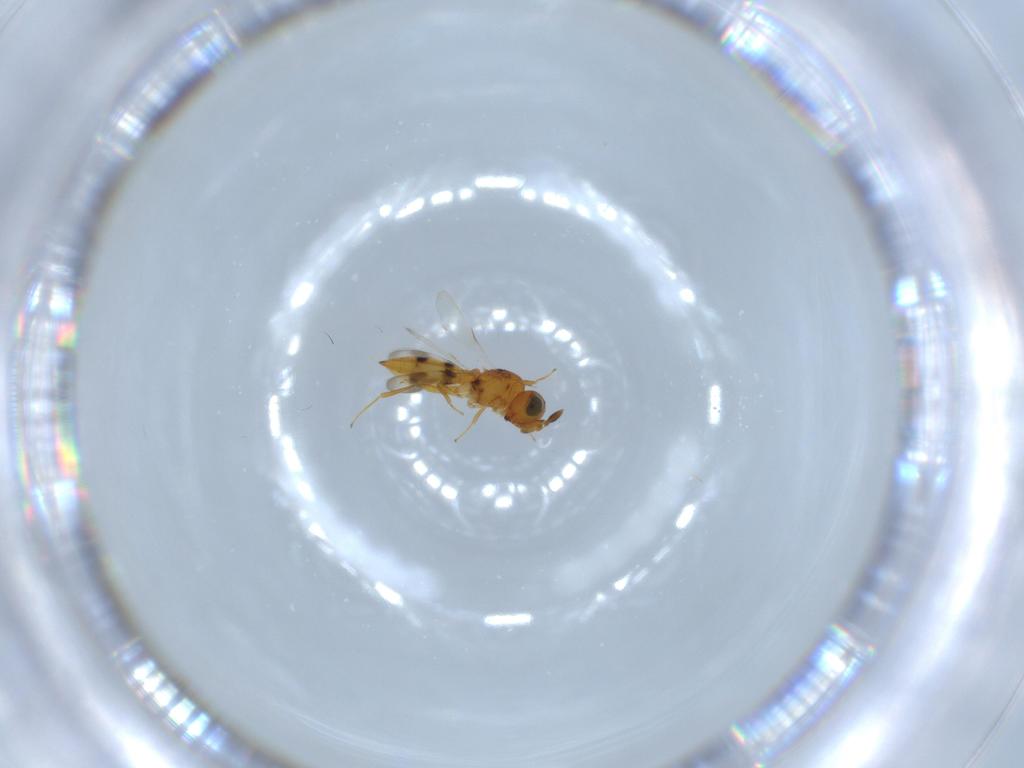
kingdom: Animalia
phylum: Arthropoda
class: Insecta
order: Hymenoptera
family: Scelionidae
